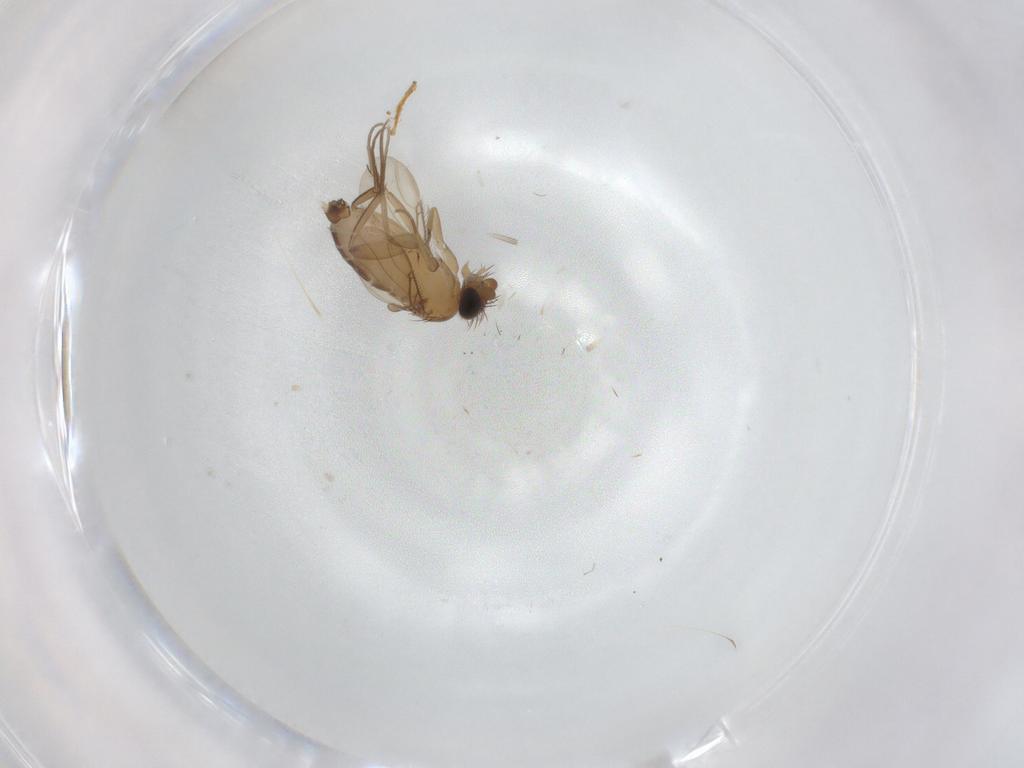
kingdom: Animalia
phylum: Arthropoda
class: Insecta
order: Diptera
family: Phoridae
